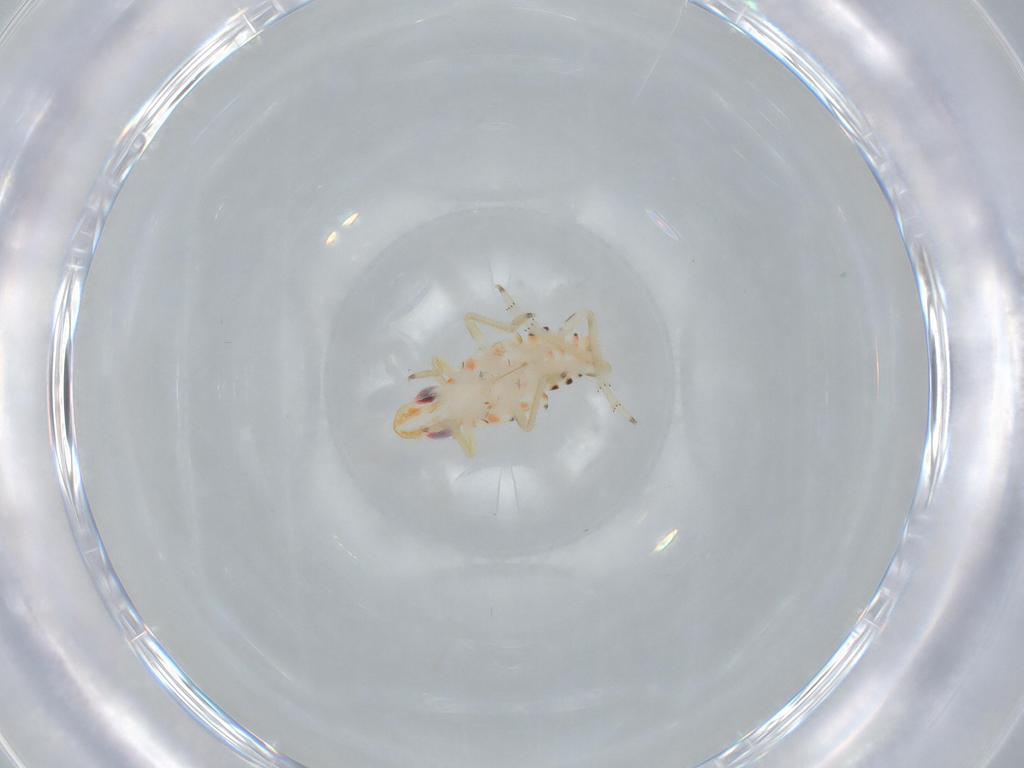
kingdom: Animalia
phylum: Arthropoda
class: Insecta
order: Hemiptera
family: Tropiduchidae
